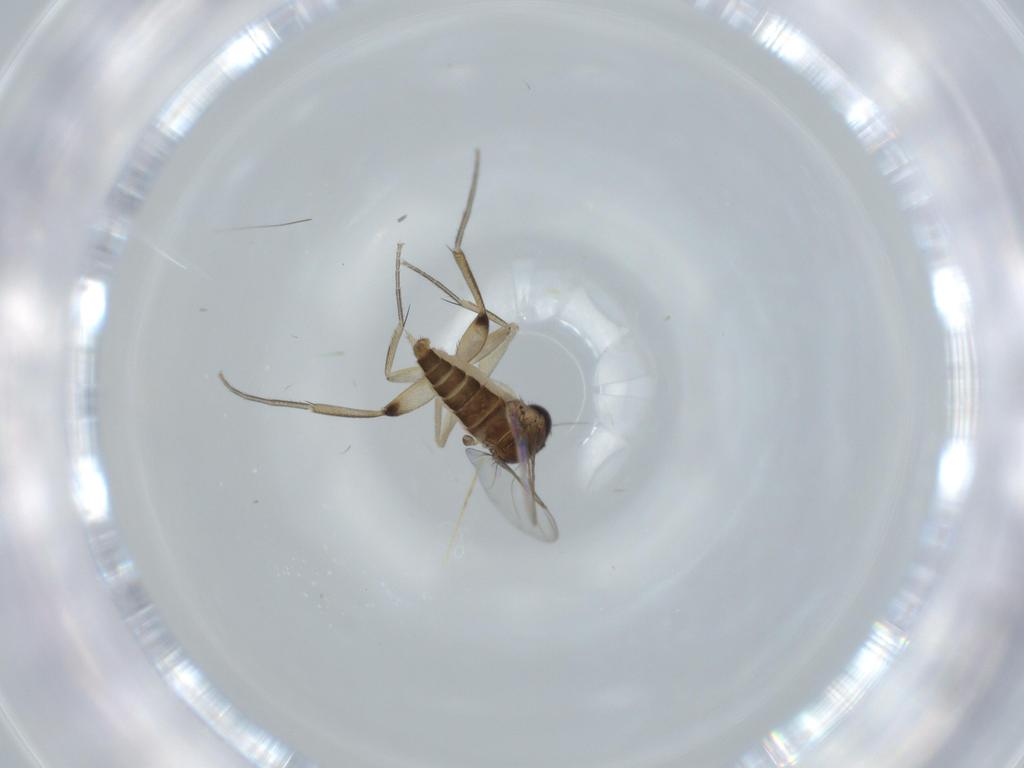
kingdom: Animalia
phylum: Arthropoda
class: Insecta
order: Diptera
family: Phoridae
